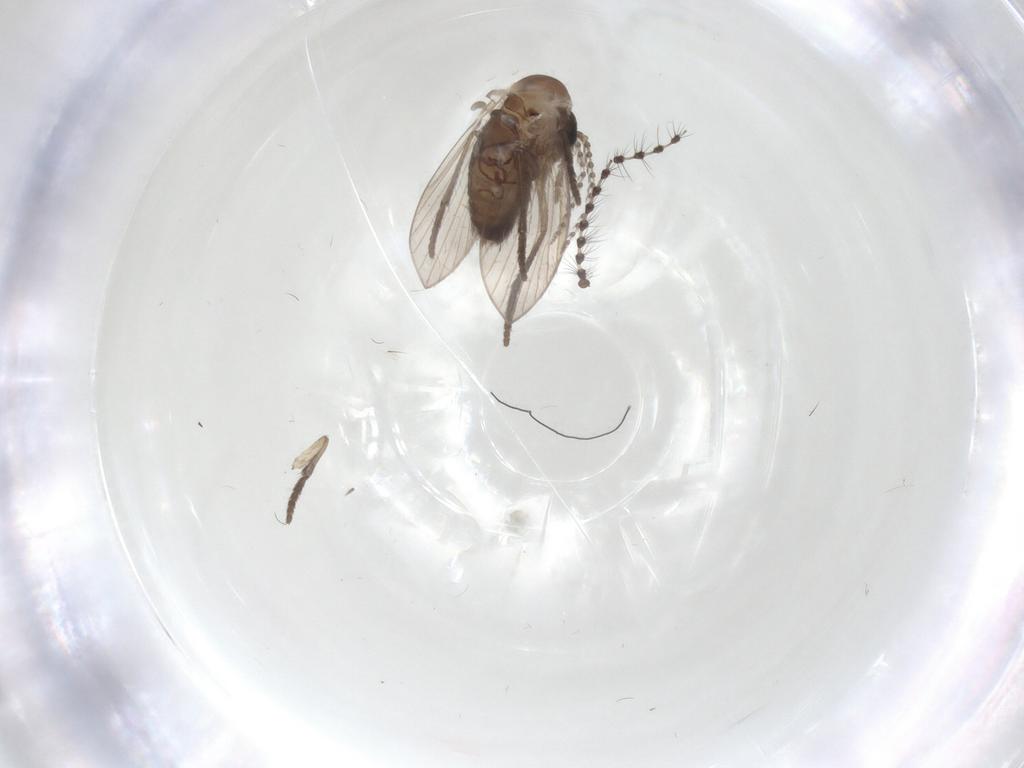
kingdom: Animalia
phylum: Arthropoda
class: Insecta
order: Diptera
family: Psychodidae
